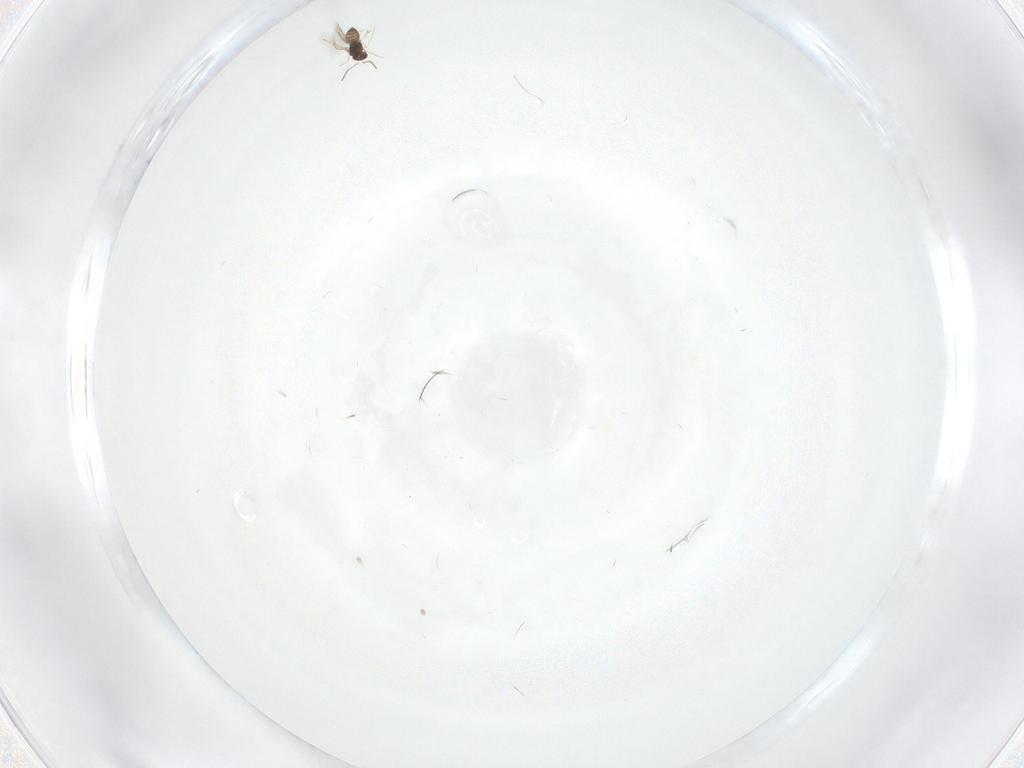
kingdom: Animalia
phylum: Arthropoda
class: Insecta
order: Hymenoptera
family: Mymaridae
